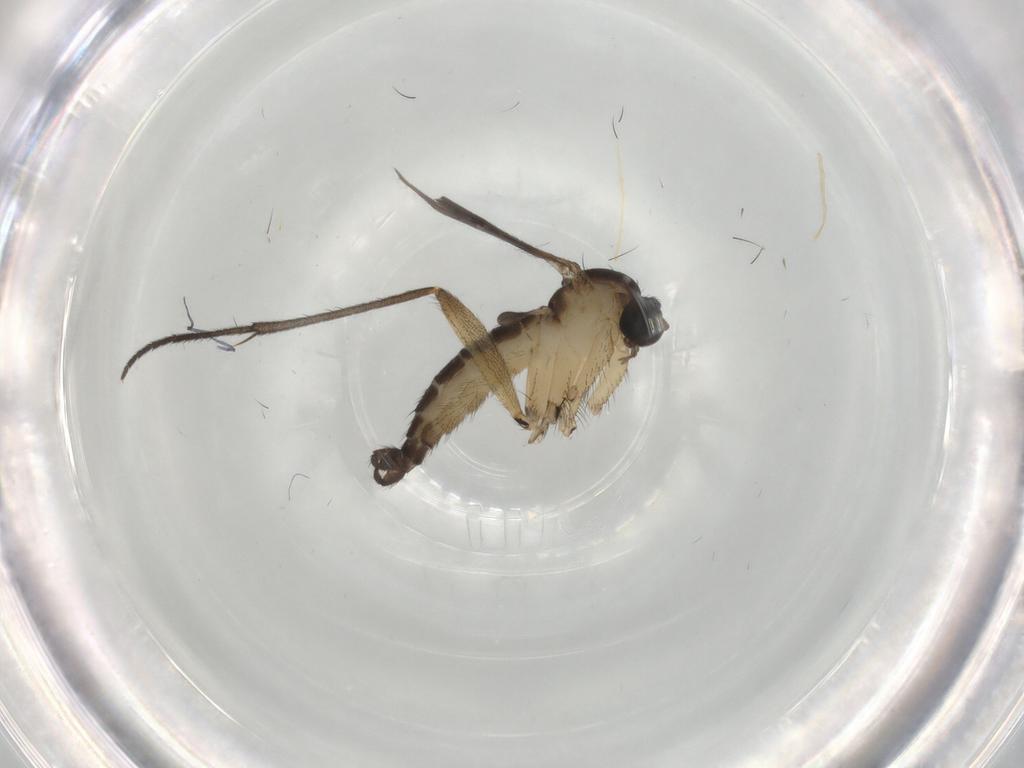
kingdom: Animalia
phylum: Arthropoda
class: Insecta
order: Diptera
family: Sciaridae
